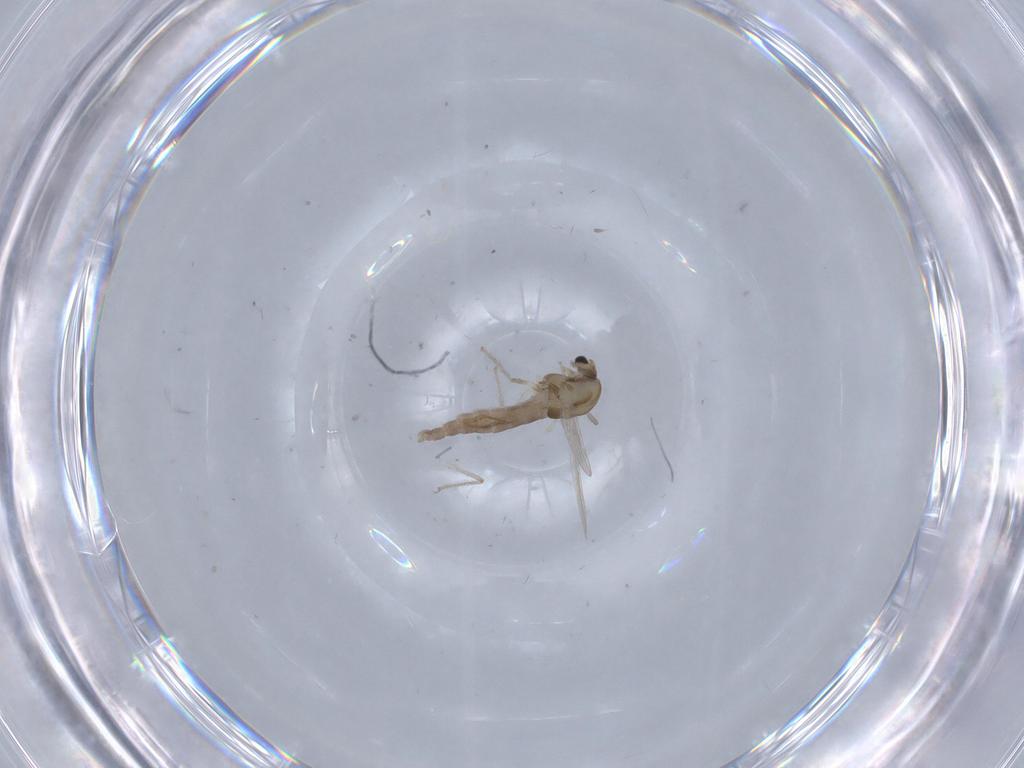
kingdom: Animalia
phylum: Arthropoda
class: Insecta
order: Diptera
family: Chironomidae
